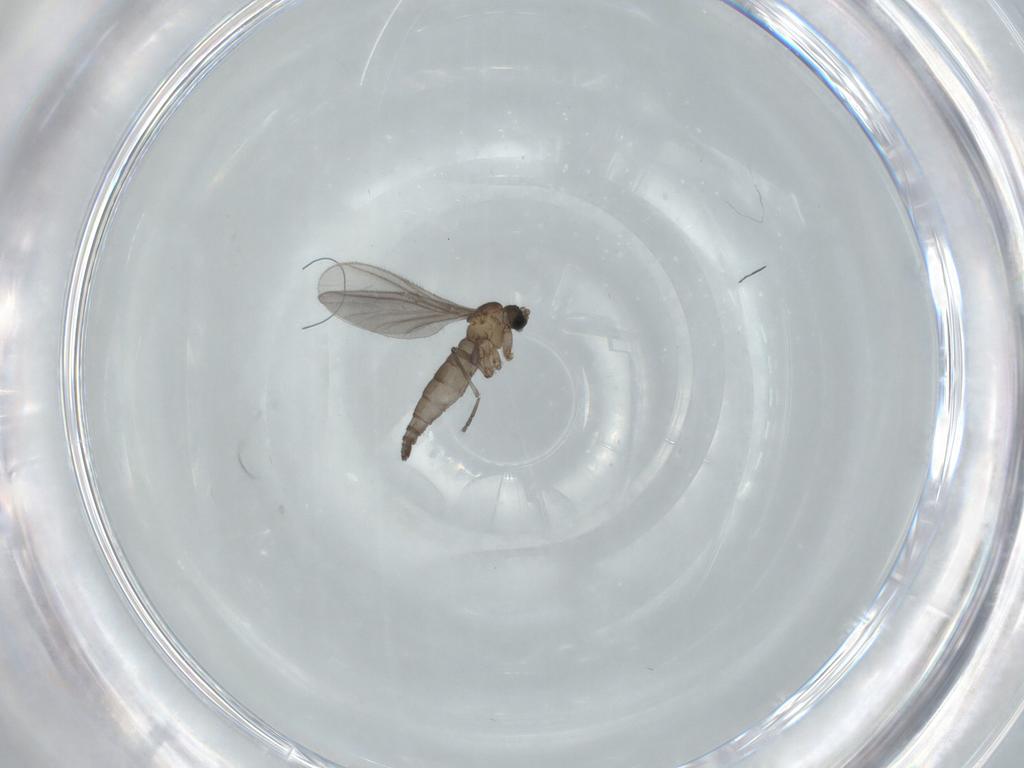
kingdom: Animalia
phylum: Arthropoda
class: Insecta
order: Diptera
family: Sciaridae
